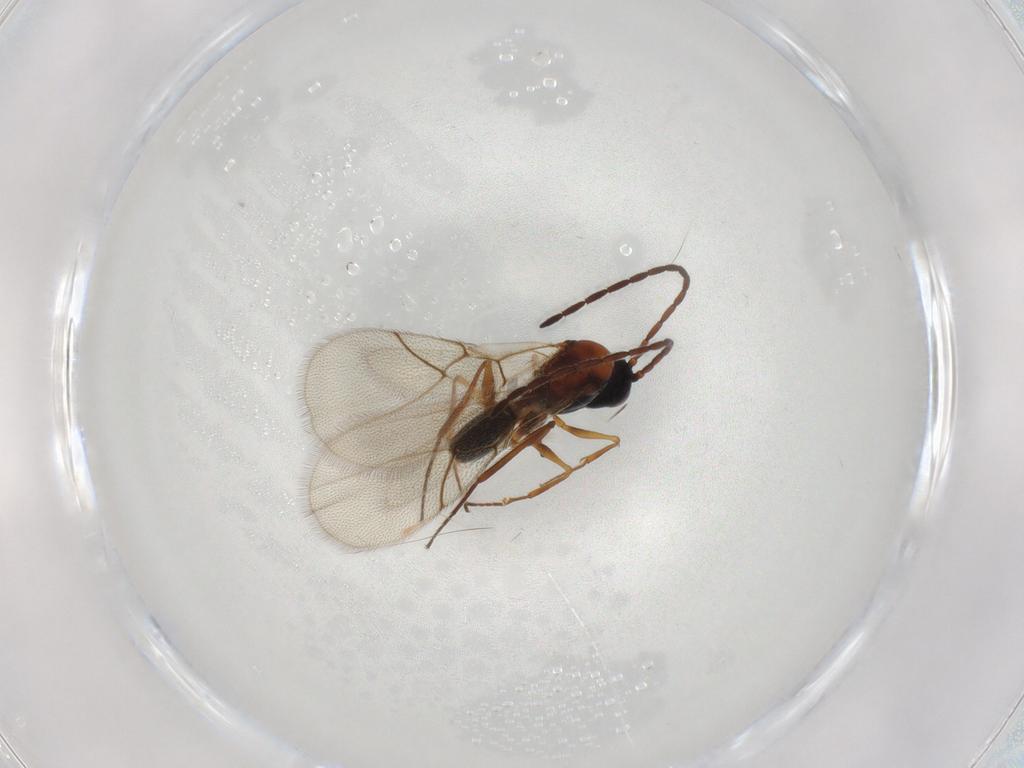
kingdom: Animalia
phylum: Arthropoda
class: Insecta
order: Hymenoptera
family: Figitidae
